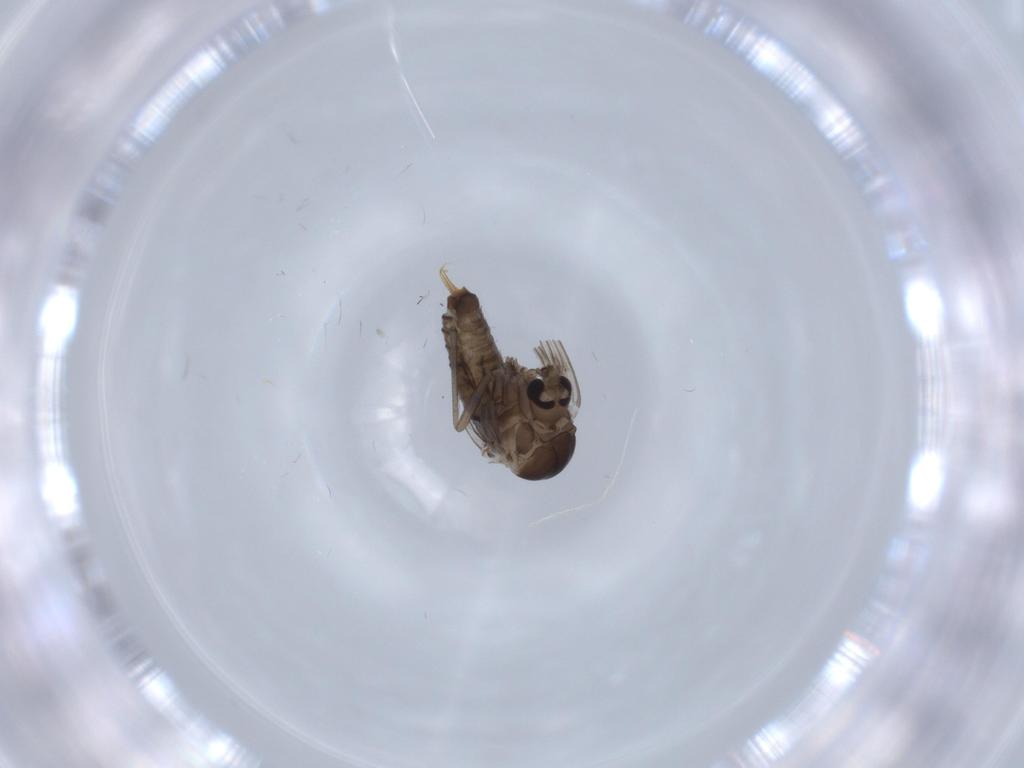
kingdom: Animalia
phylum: Arthropoda
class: Insecta
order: Diptera
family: Psychodidae
